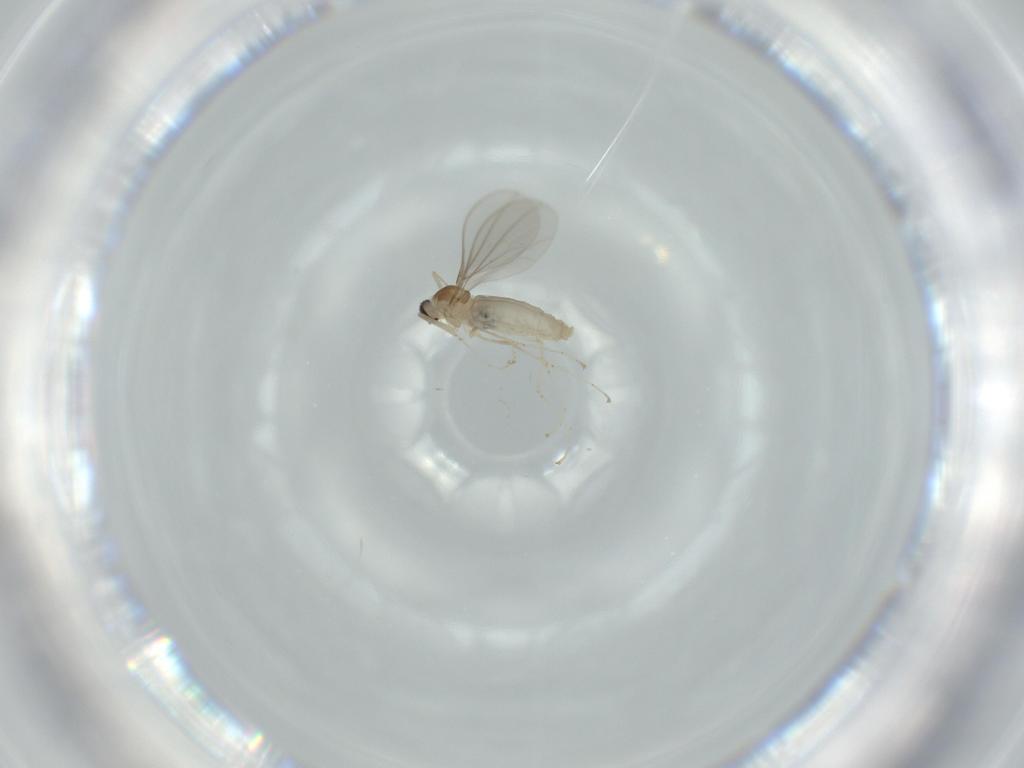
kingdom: Animalia
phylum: Arthropoda
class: Insecta
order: Diptera
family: Cecidomyiidae
